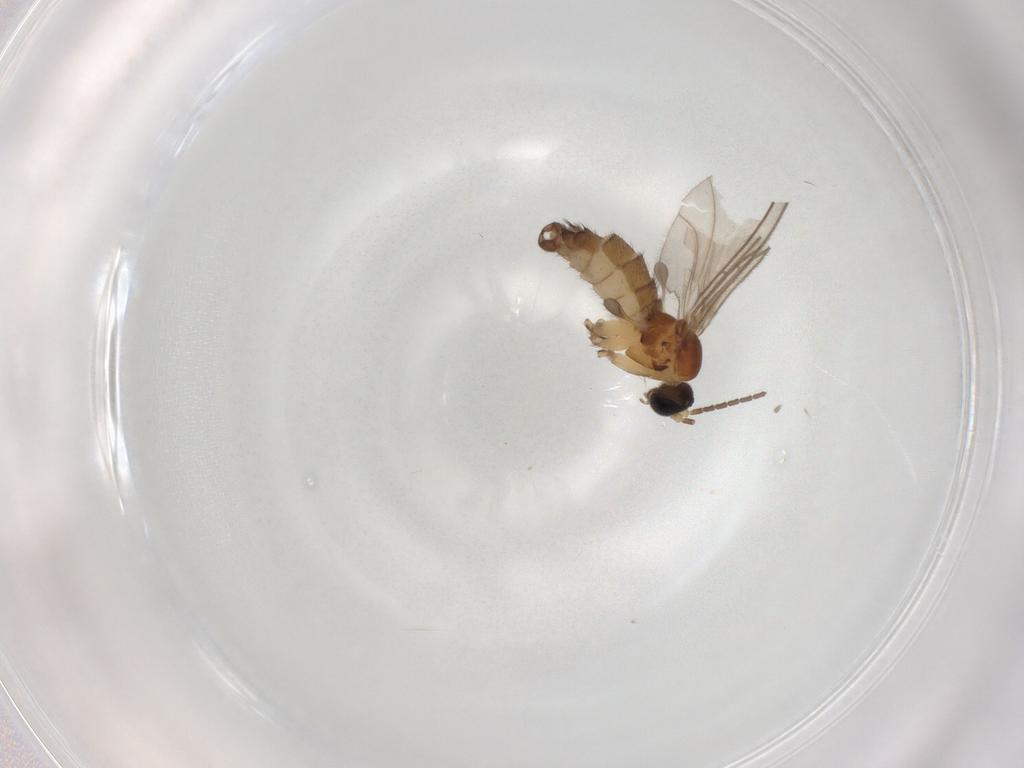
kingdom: Animalia
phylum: Arthropoda
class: Insecta
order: Diptera
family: Sciaridae
